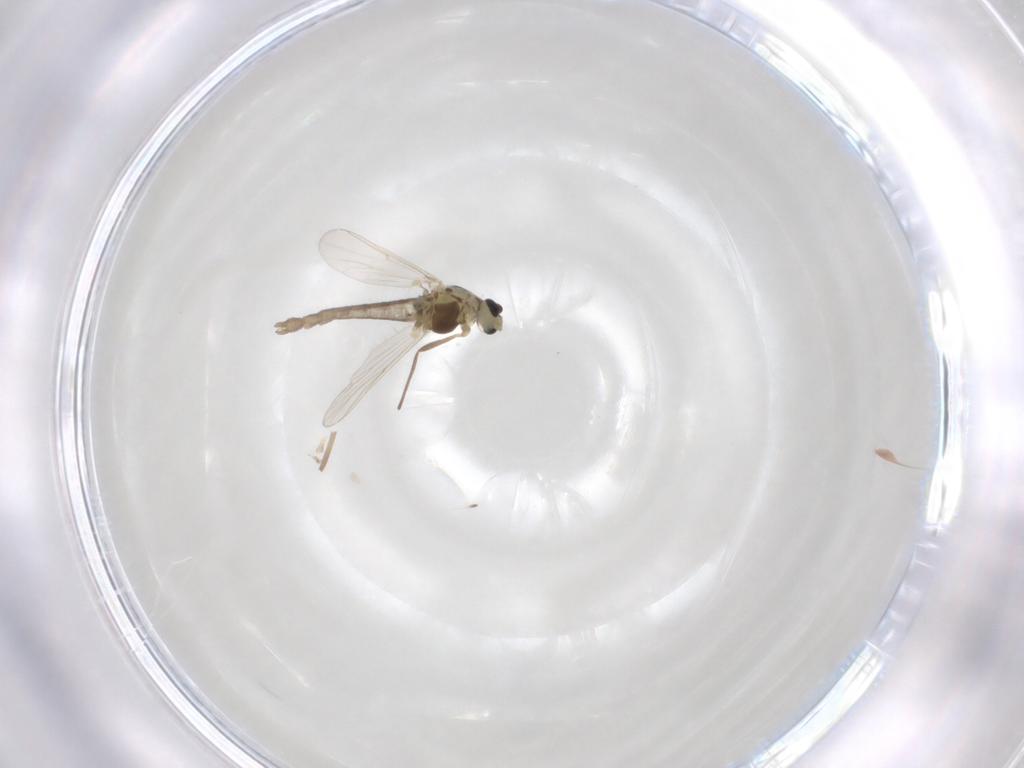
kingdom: Animalia
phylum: Arthropoda
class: Insecta
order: Diptera
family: Chironomidae
